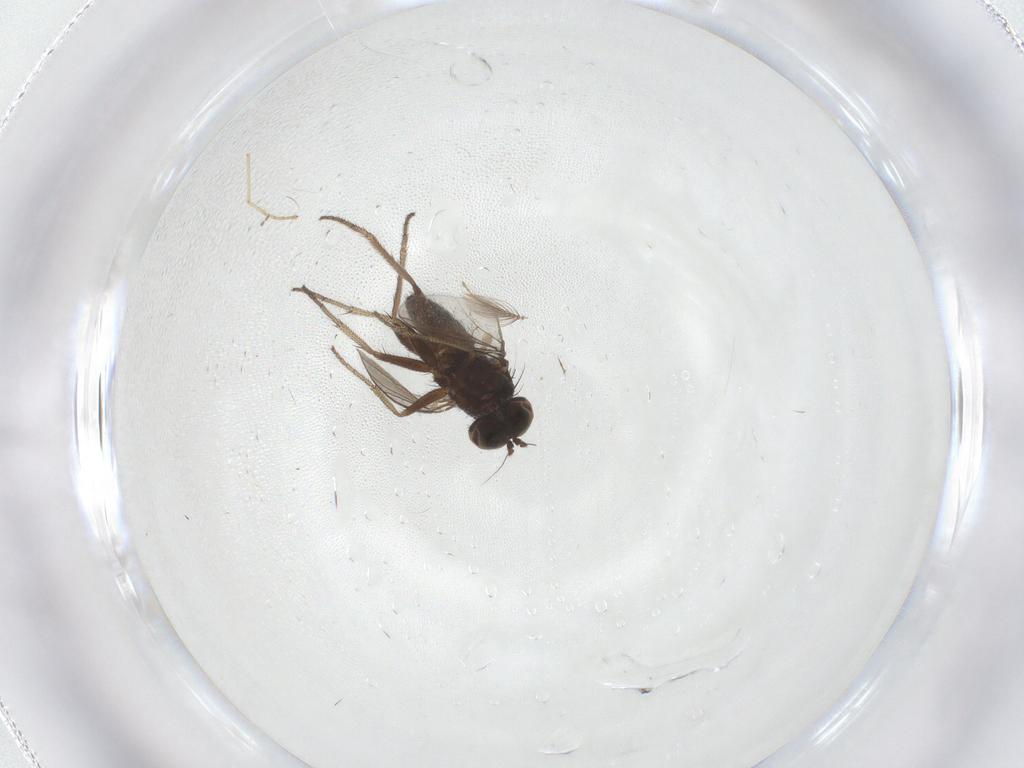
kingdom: Animalia
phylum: Arthropoda
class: Insecta
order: Diptera
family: Dolichopodidae
